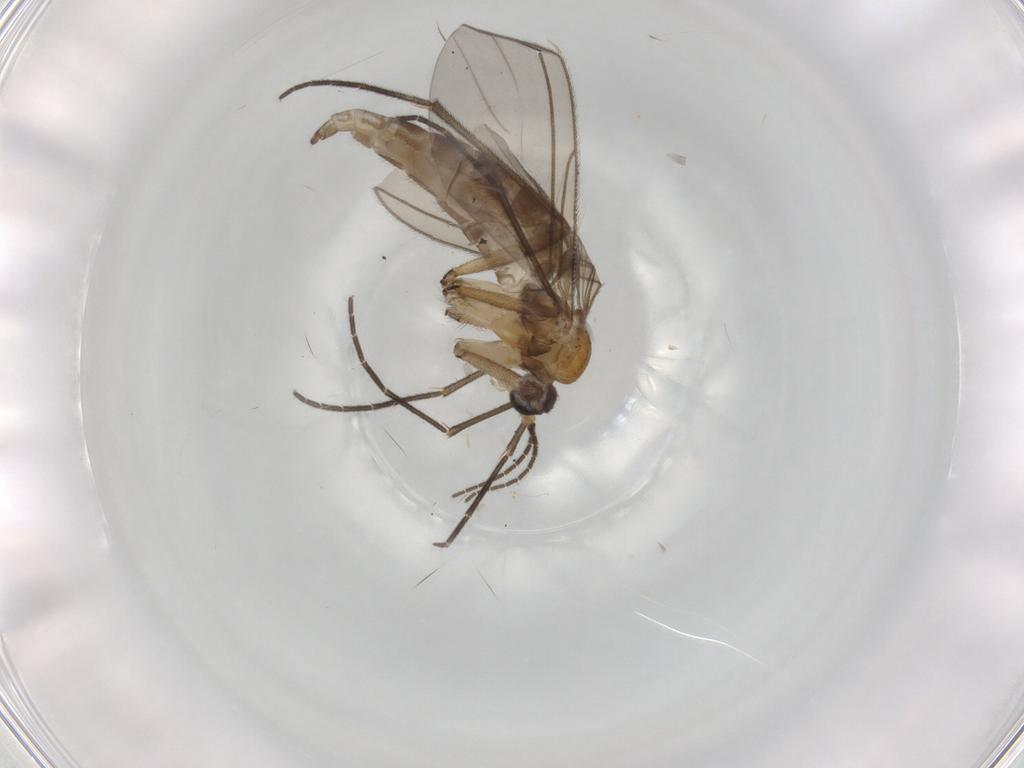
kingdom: Animalia
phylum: Arthropoda
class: Insecta
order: Diptera
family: Sciaridae
